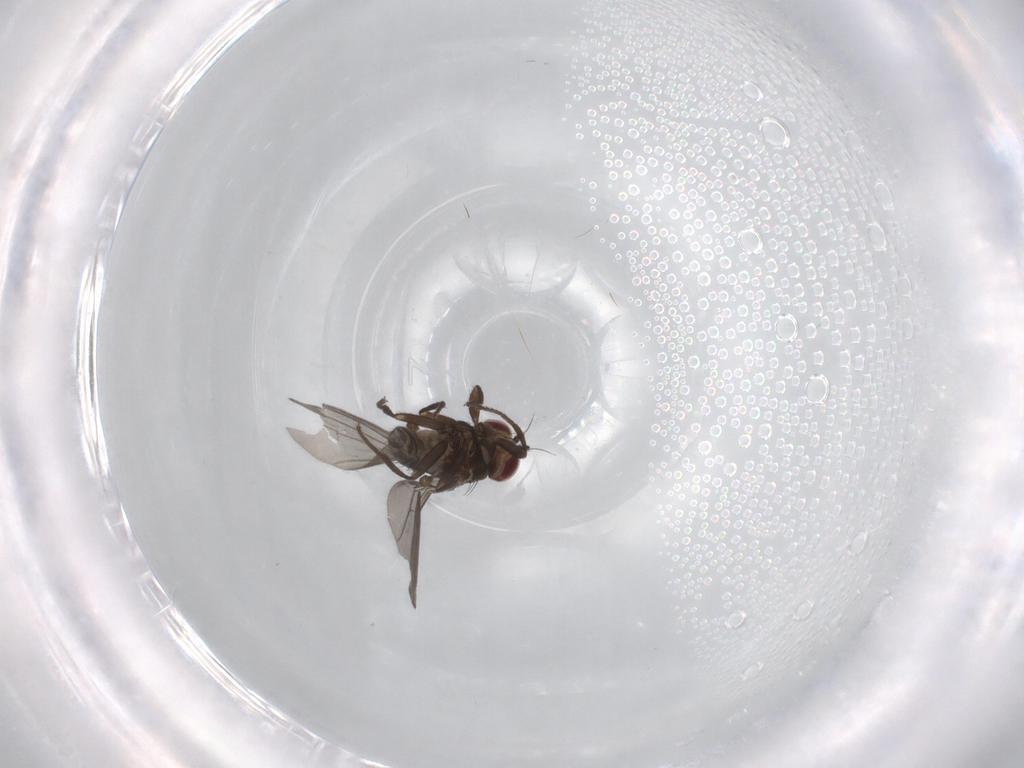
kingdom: Animalia
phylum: Arthropoda
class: Insecta
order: Diptera
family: Agromyzidae
